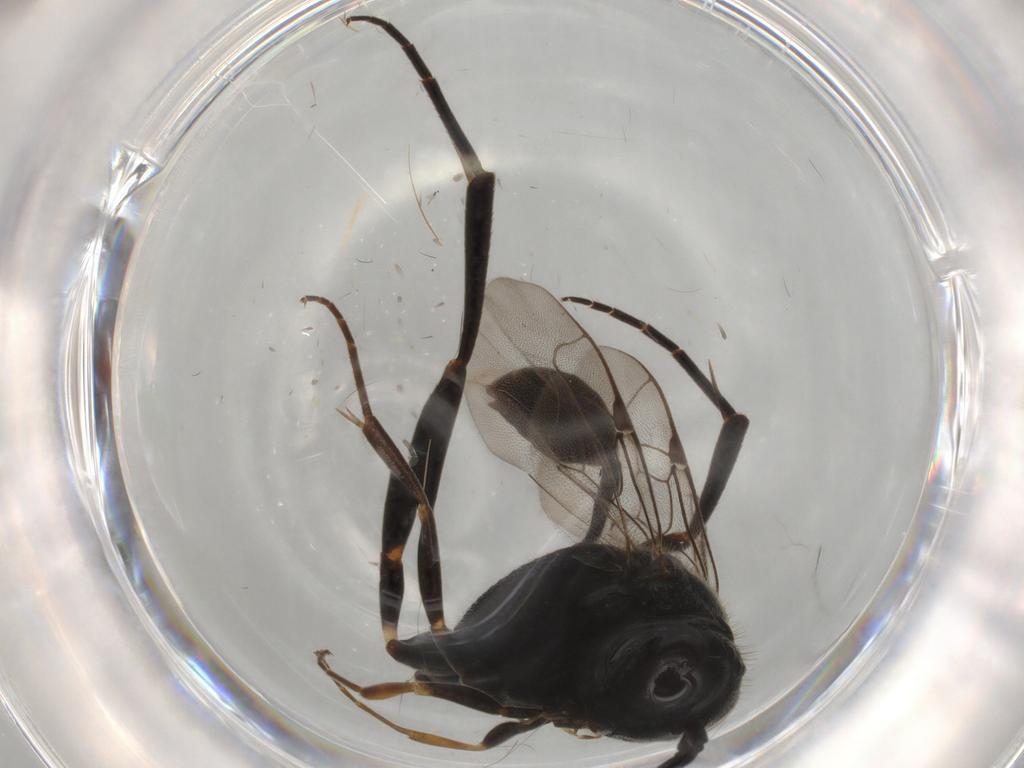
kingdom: Animalia
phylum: Arthropoda
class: Insecta
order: Hymenoptera
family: Evaniidae
